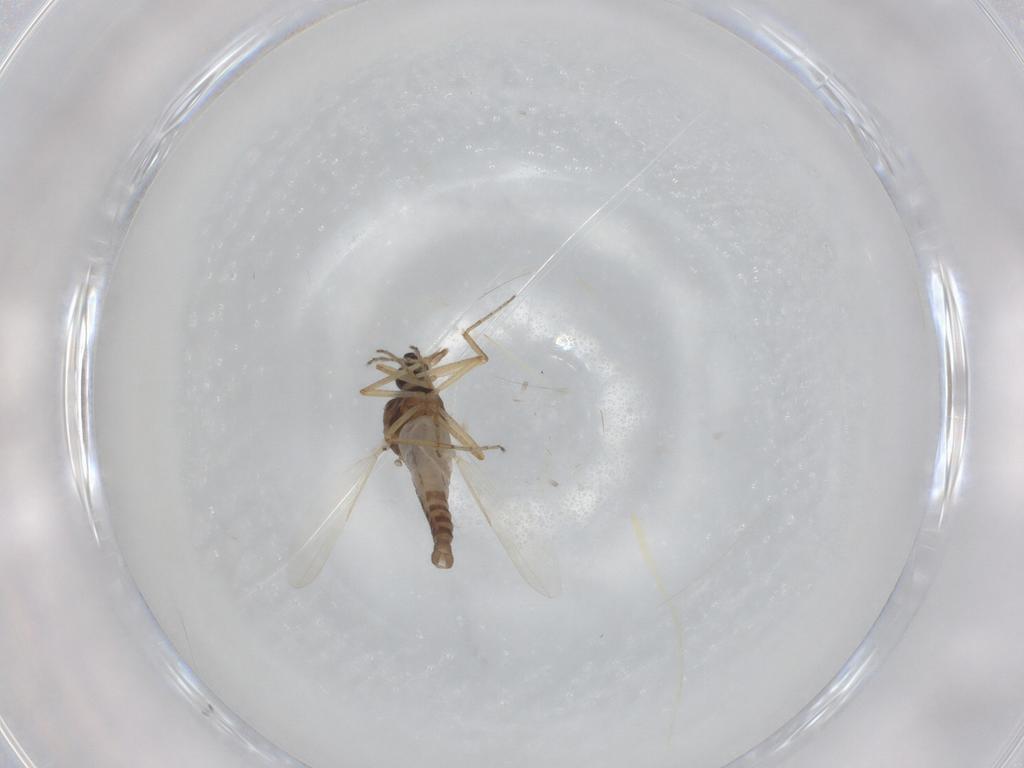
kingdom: Animalia
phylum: Arthropoda
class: Insecta
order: Diptera
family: Ceratopogonidae
